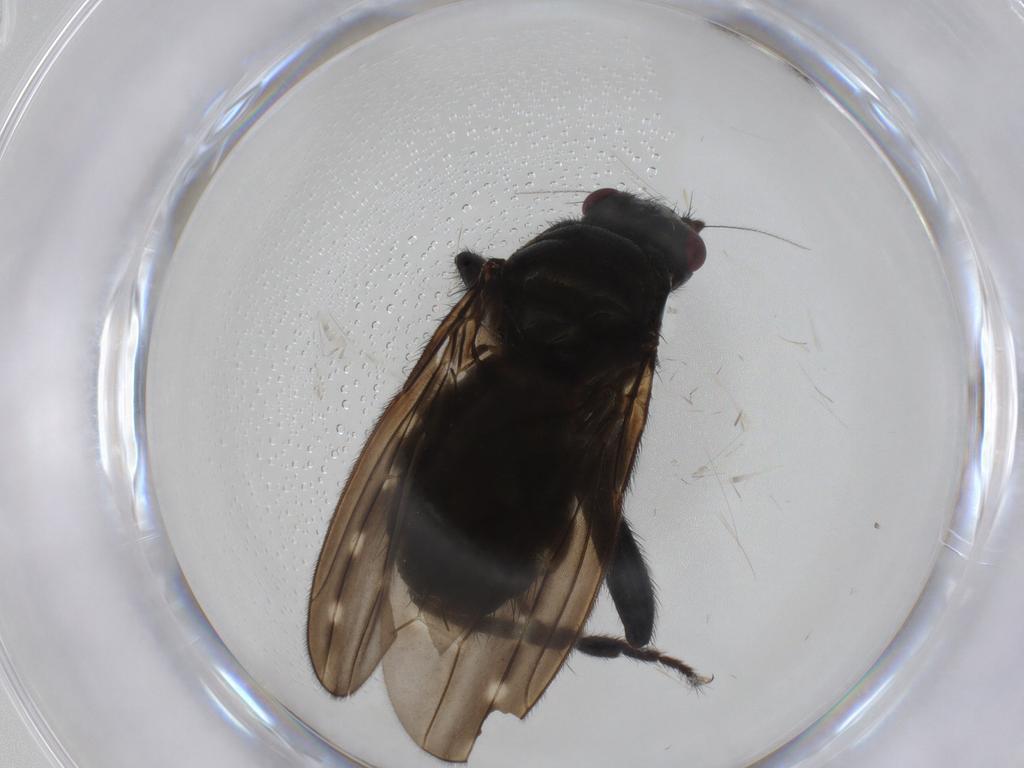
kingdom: Animalia
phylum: Arthropoda
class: Insecta
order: Diptera
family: Sphaeroceridae
